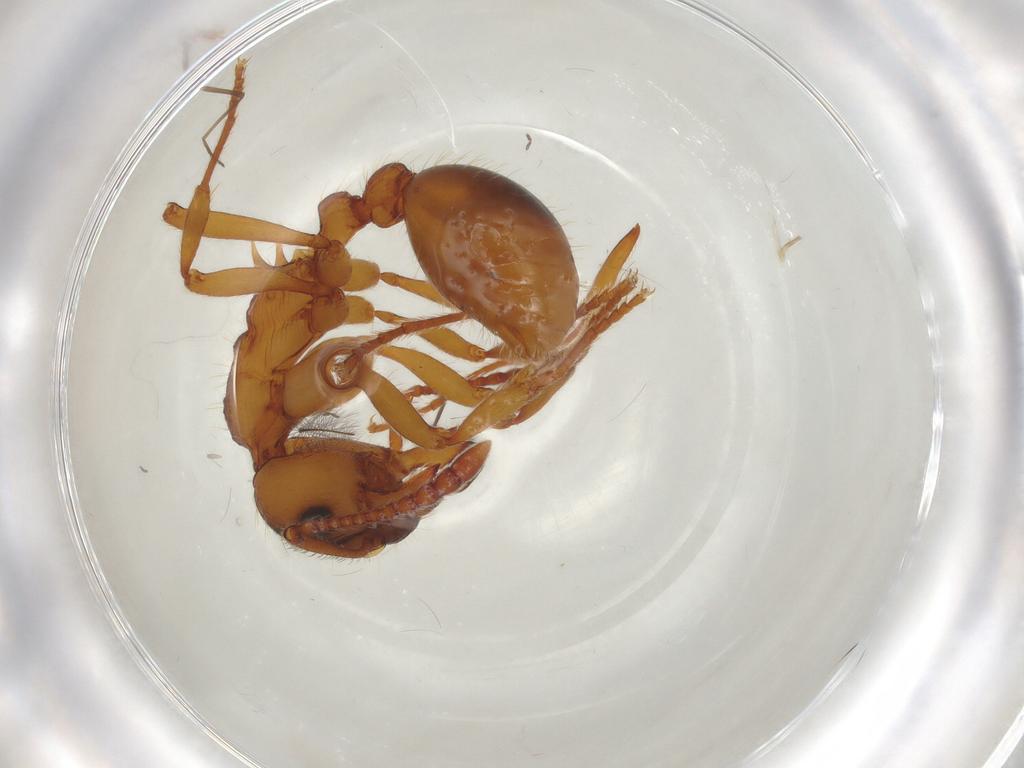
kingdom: Animalia
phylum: Arthropoda
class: Insecta
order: Hymenoptera
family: Formicidae
